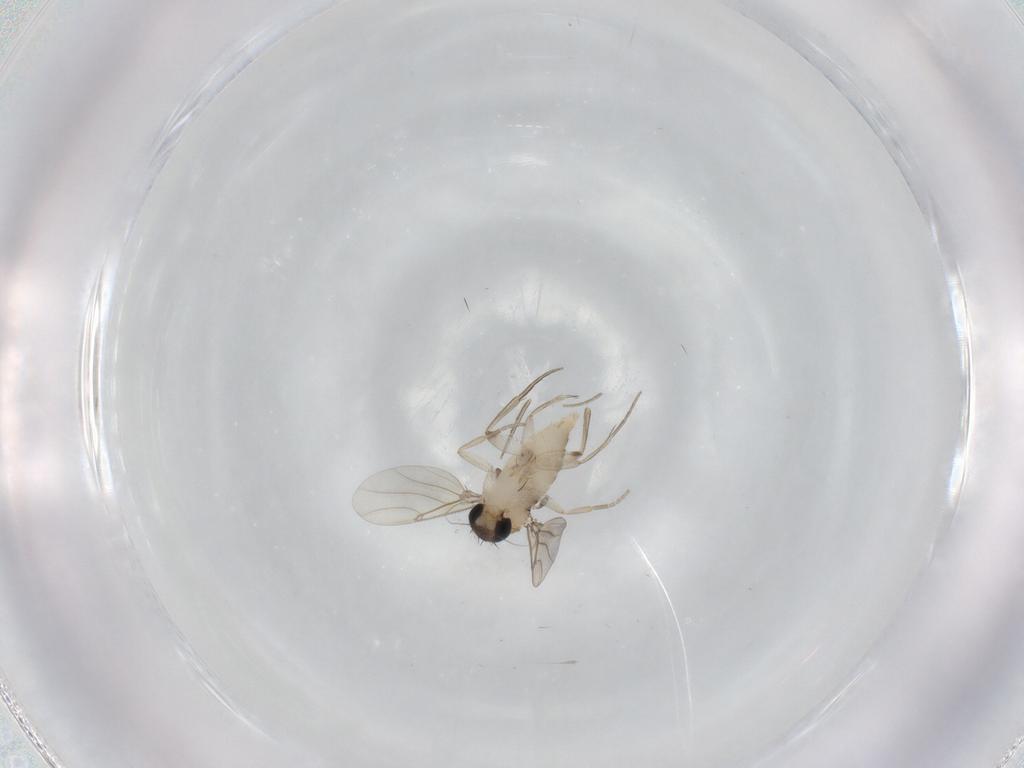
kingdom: Animalia
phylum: Arthropoda
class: Insecta
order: Diptera
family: Phoridae
